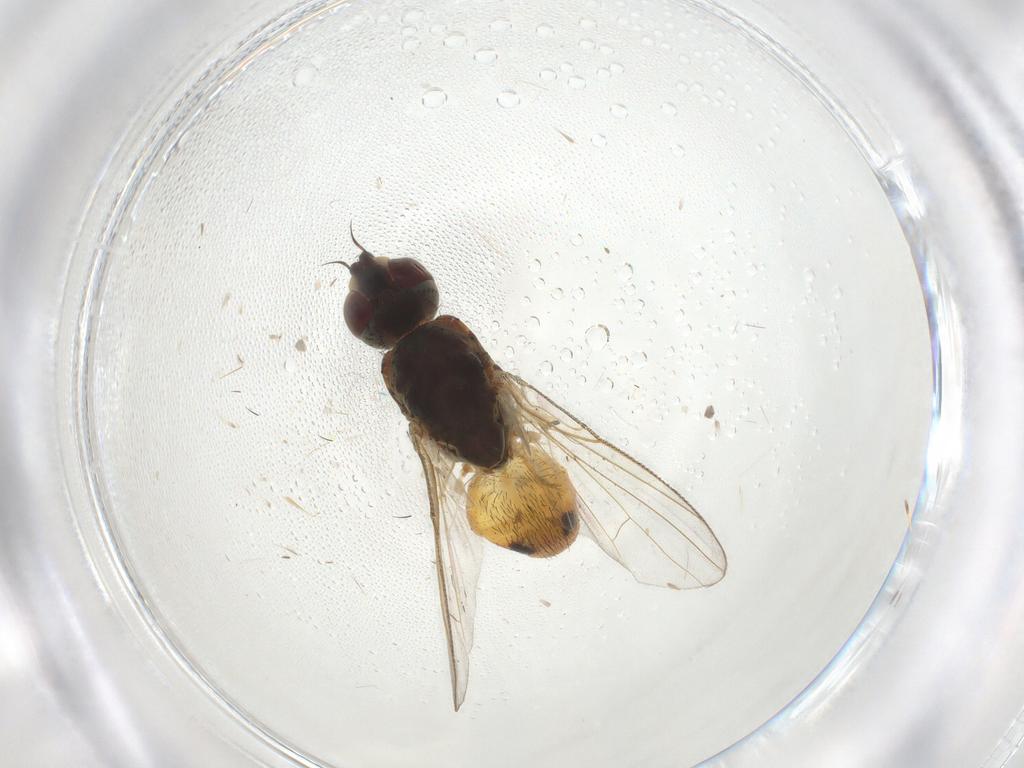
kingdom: Animalia
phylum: Arthropoda
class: Insecta
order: Diptera
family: Muscidae
